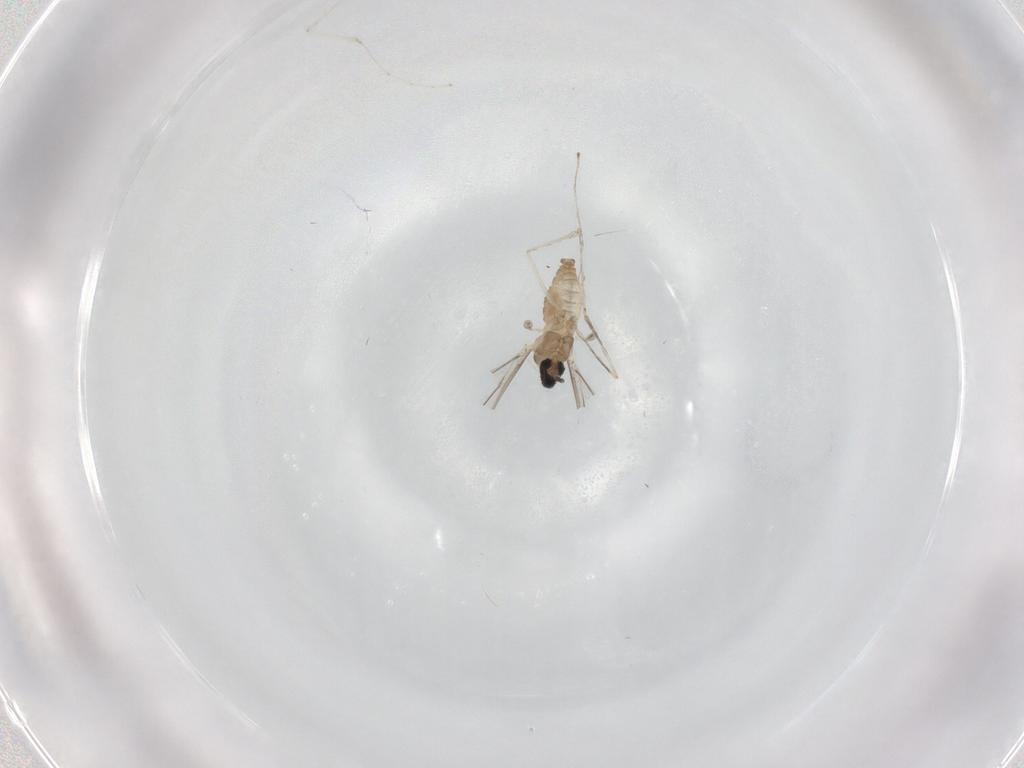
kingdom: Animalia
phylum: Arthropoda
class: Insecta
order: Diptera
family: Cecidomyiidae
